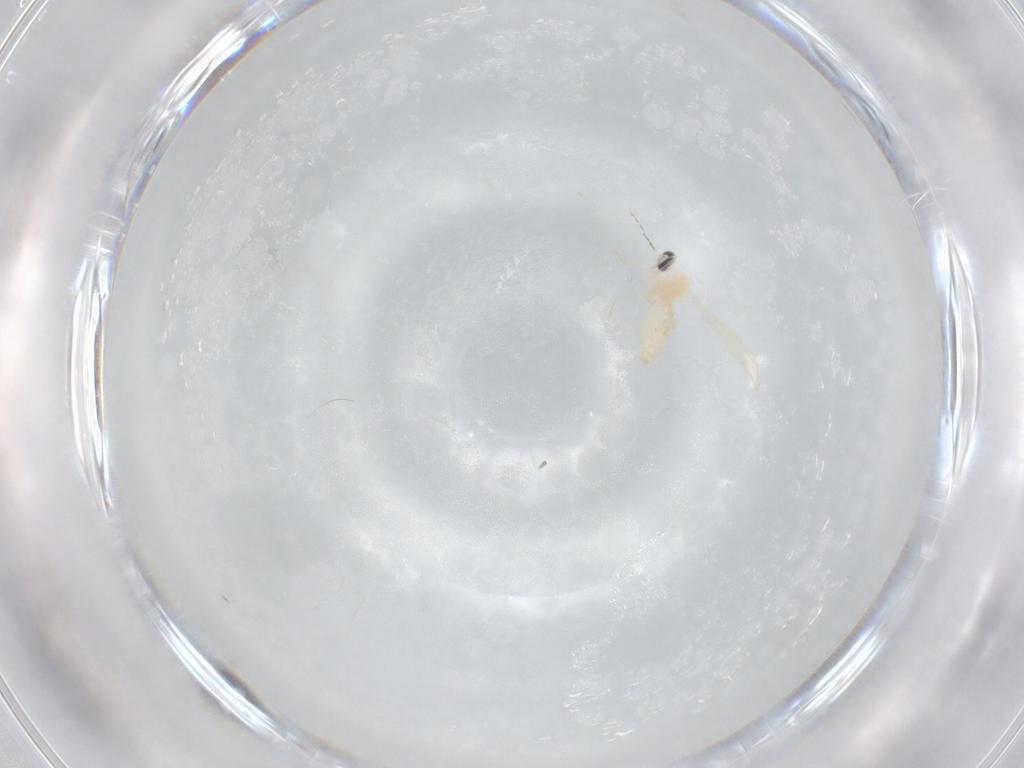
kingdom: Animalia
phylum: Arthropoda
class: Insecta
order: Diptera
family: Cecidomyiidae
